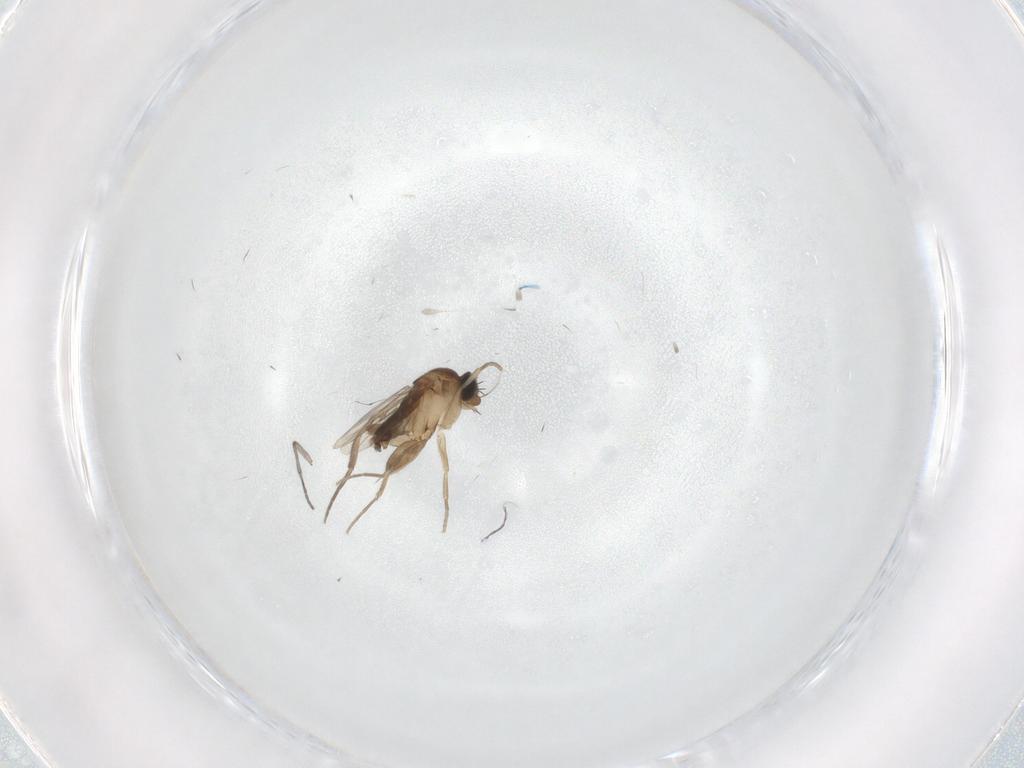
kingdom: Animalia
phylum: Arthropoda
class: Insecta
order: Diptera
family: Phoridae
